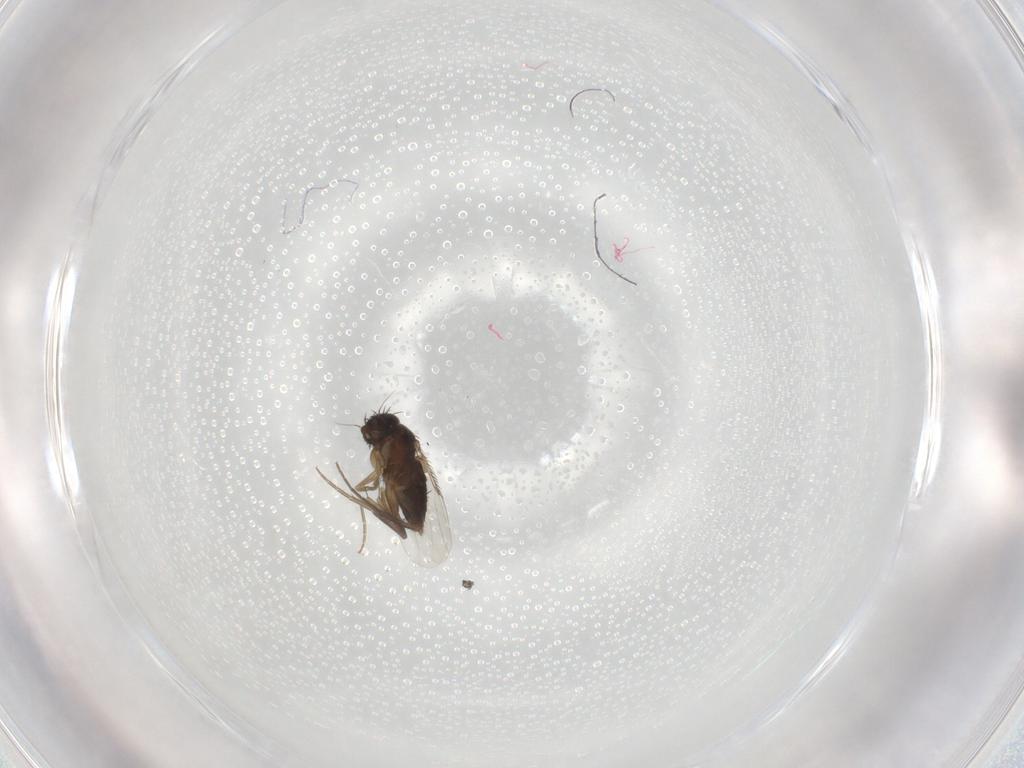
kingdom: Animalia
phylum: Arthropoda
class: Insecta
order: Diptera
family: Phoridae
